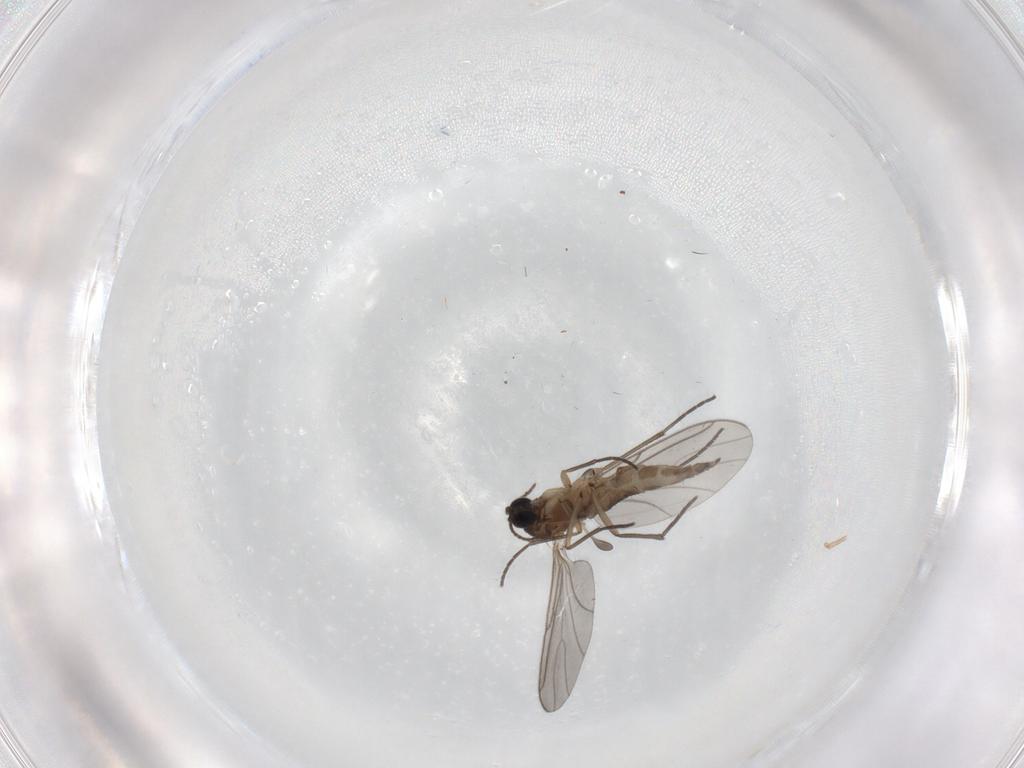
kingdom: Animalia
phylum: Arthropoda
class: Insecta
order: Diptera
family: Sciaridae
